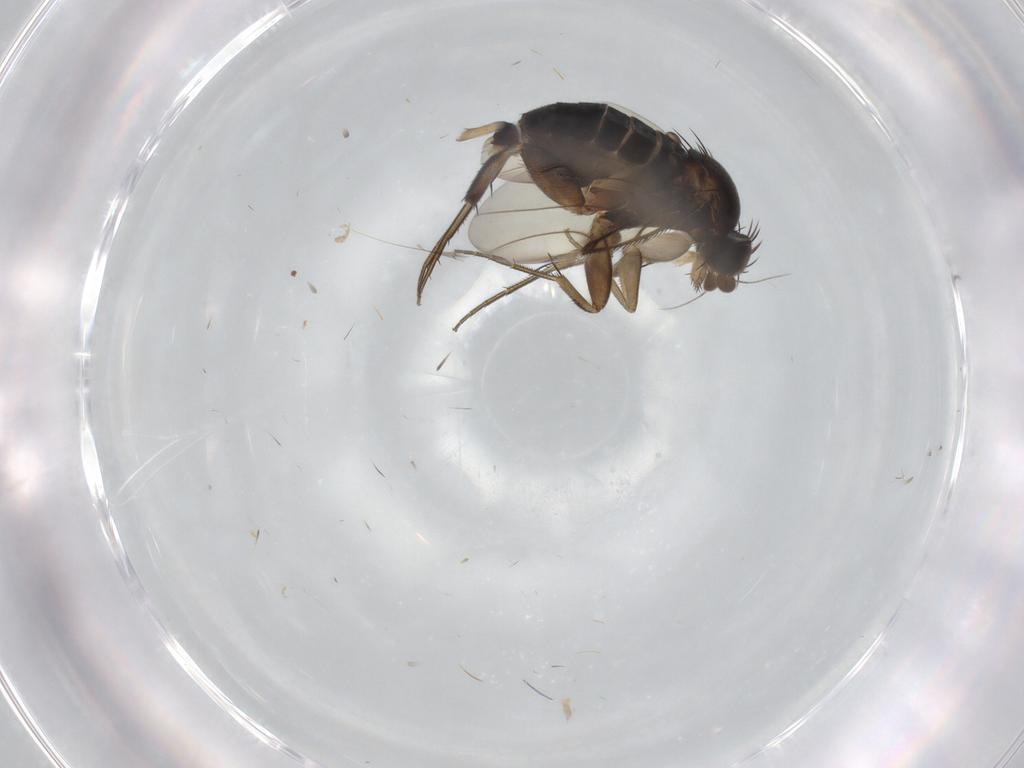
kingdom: Animalia
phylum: Arthropoda
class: Insecta
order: Diptera
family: Phoridae
